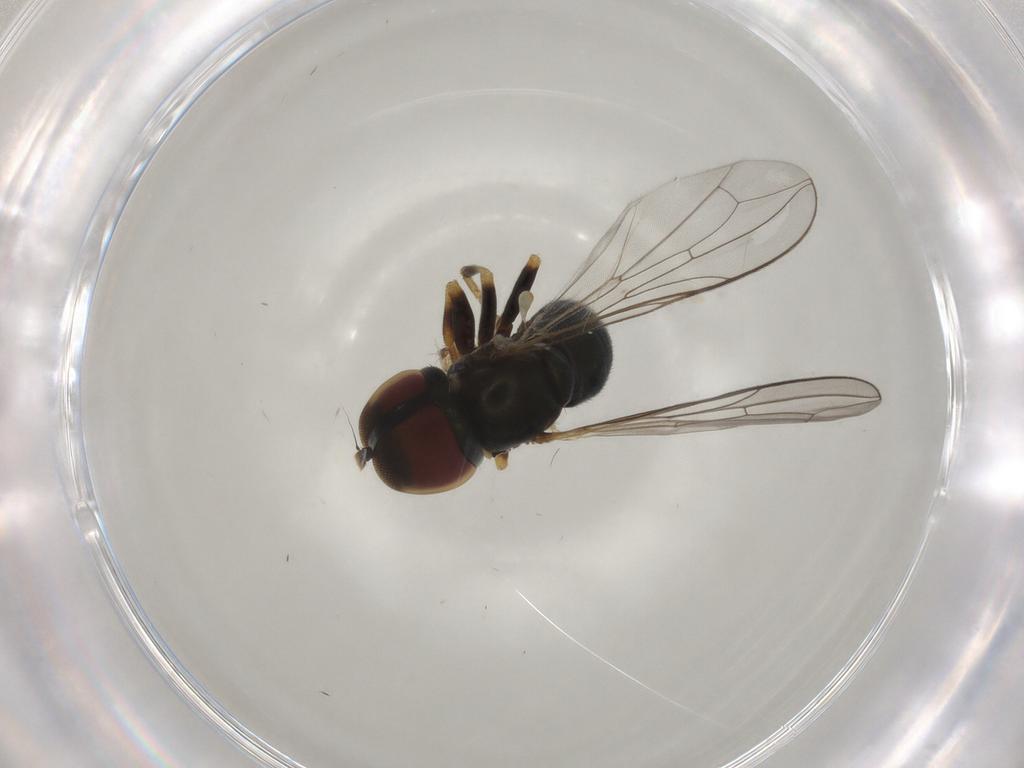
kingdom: Animalia
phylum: Arthropoda
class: Insecta
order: Diptera
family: Pipunculidae
